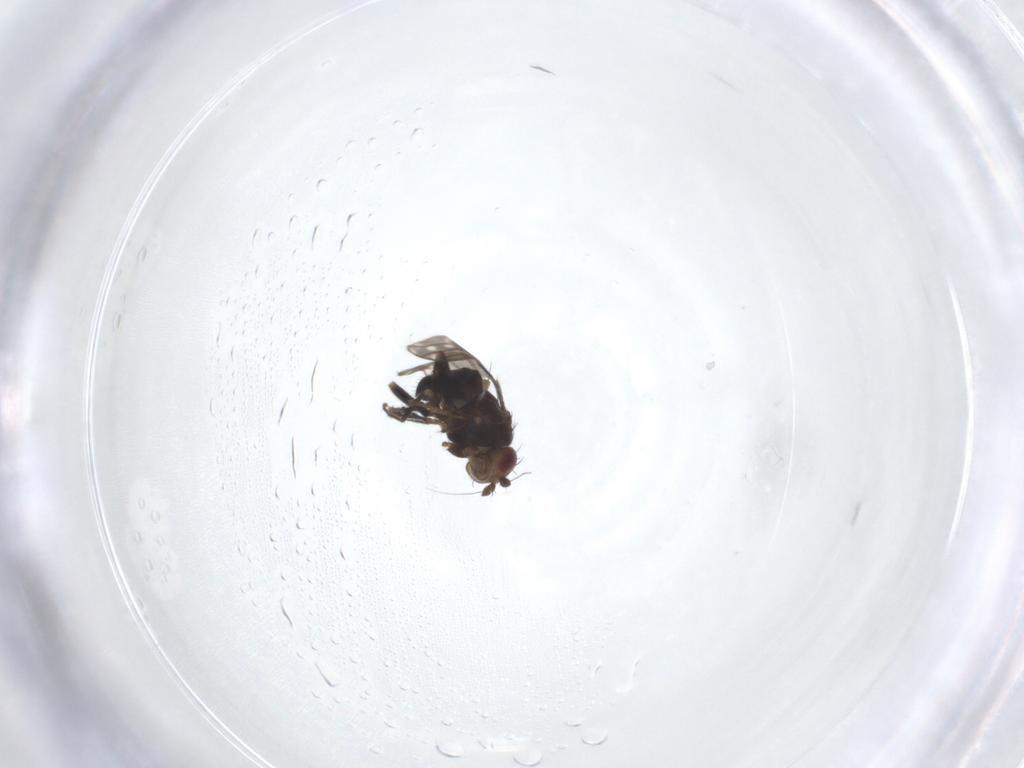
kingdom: Animalia
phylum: Arthropoda
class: Insecta
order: Diptera
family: Sphaeroceridae
